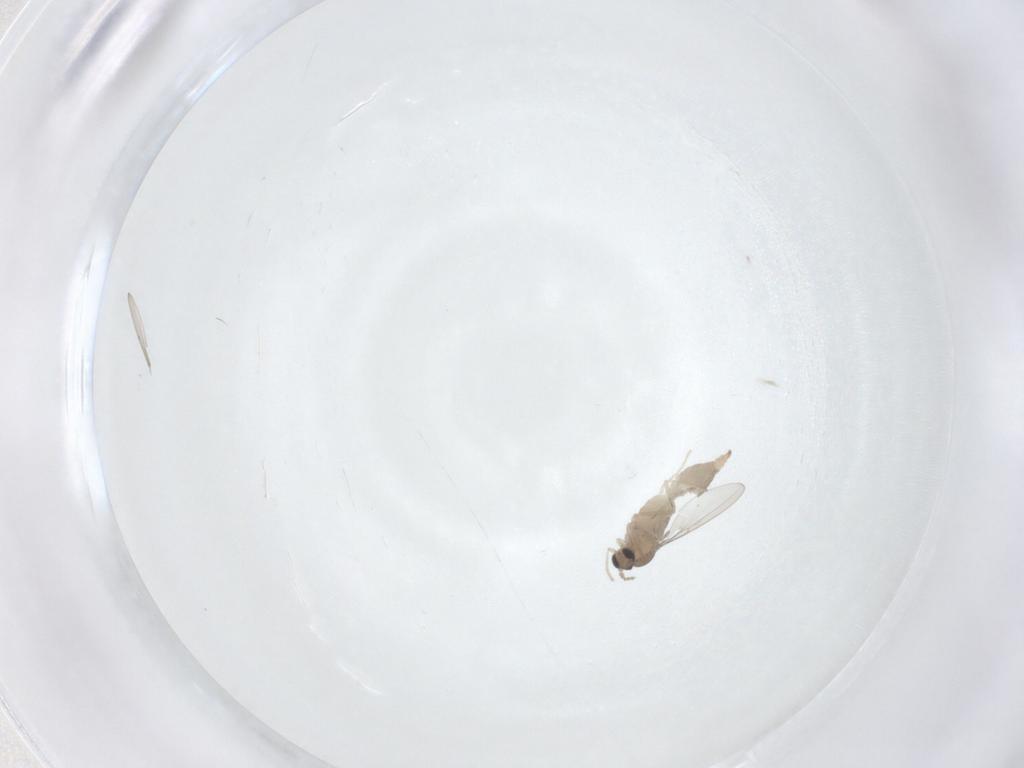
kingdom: Animalia
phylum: Arthropoda
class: Insecta
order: Diptera
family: Cecidomyiidae
